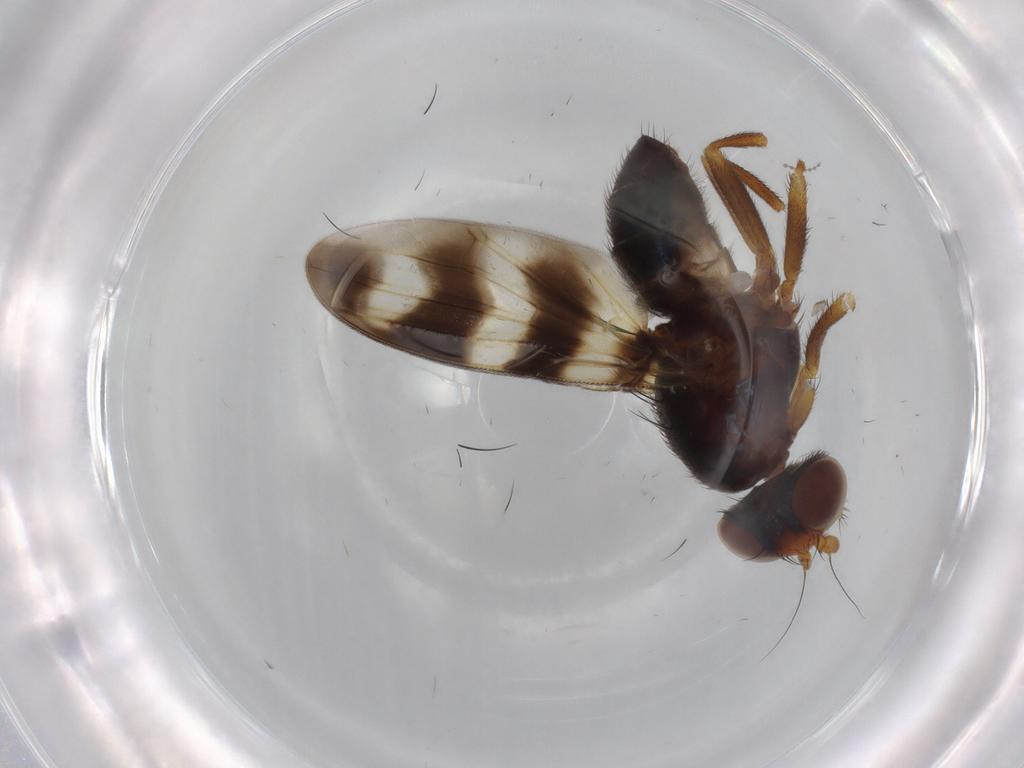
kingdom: Animalia
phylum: Arthropoda
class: Insecta
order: Diptera
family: Ulidiidae
